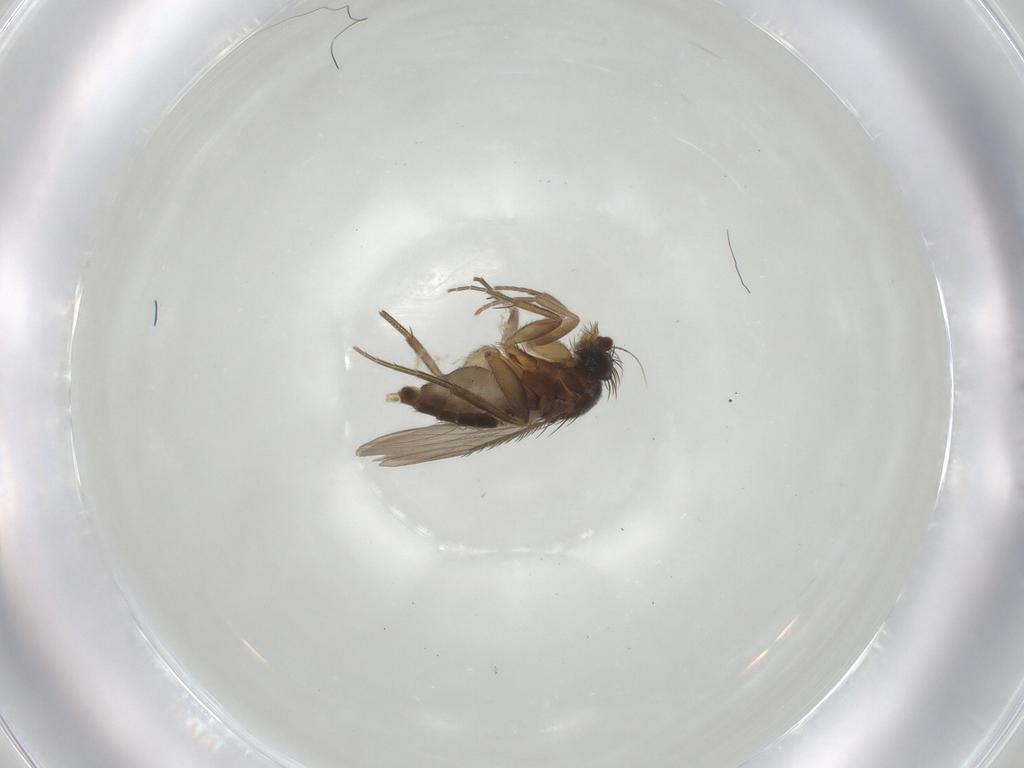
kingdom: Animalia
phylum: Arthropoda
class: Insecta
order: Diptera
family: Phoridae
